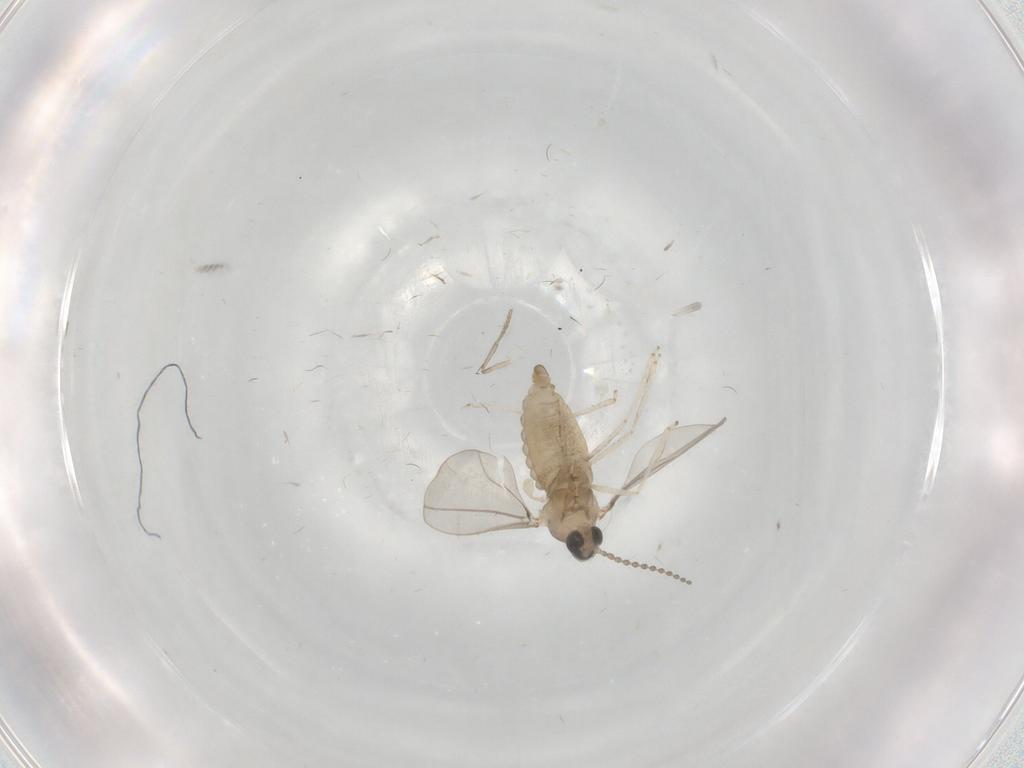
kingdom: Animalia
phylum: Arthropoda
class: Insecta
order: Diptera
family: Cecidomyiidae
